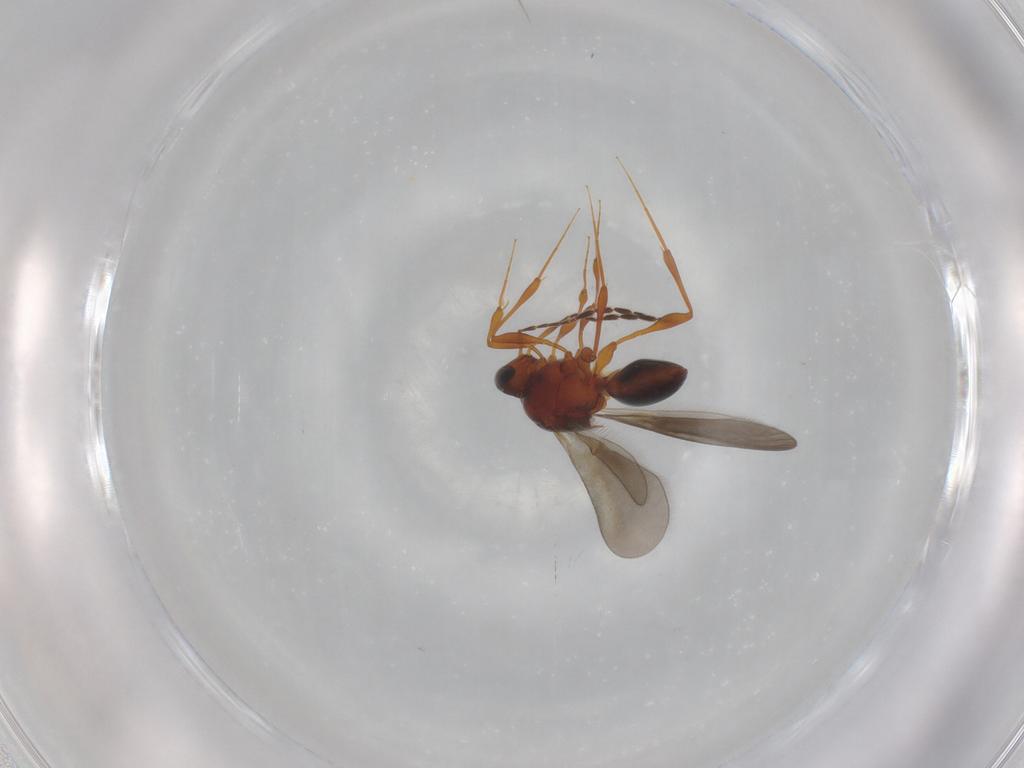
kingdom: Animalia
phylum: Arthropoda
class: Insecta
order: Hymenoptera
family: Platygastridae
